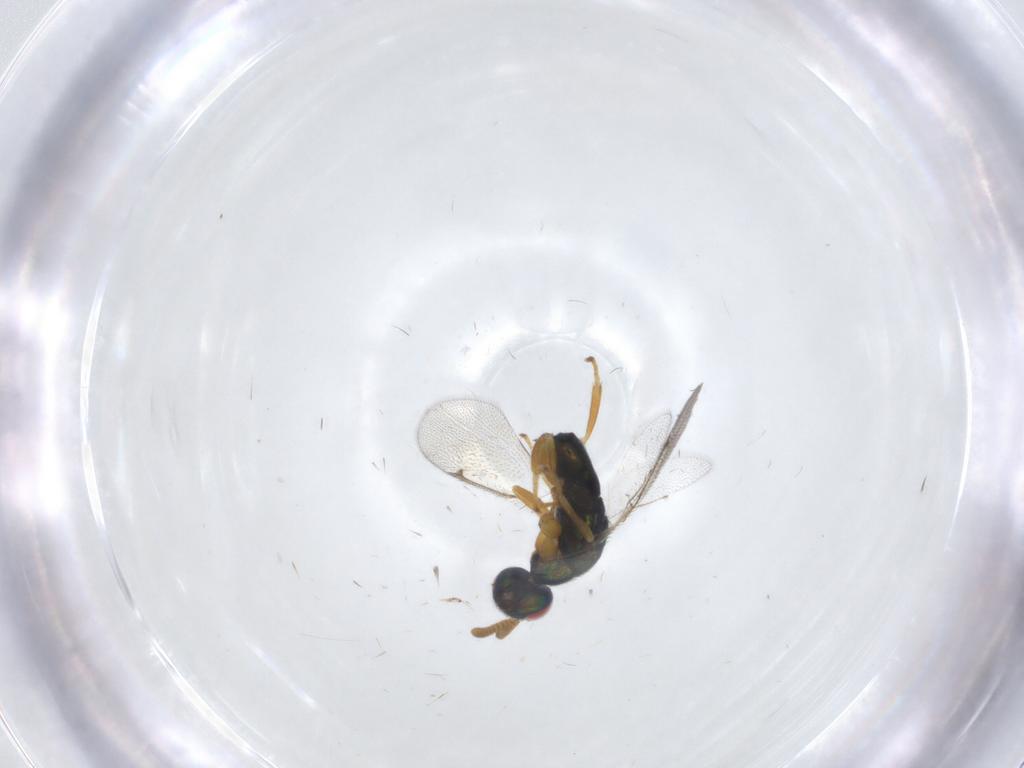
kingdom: Animalia
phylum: Arthropoda
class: Insecta
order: Hymenoptera
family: Torymidae
